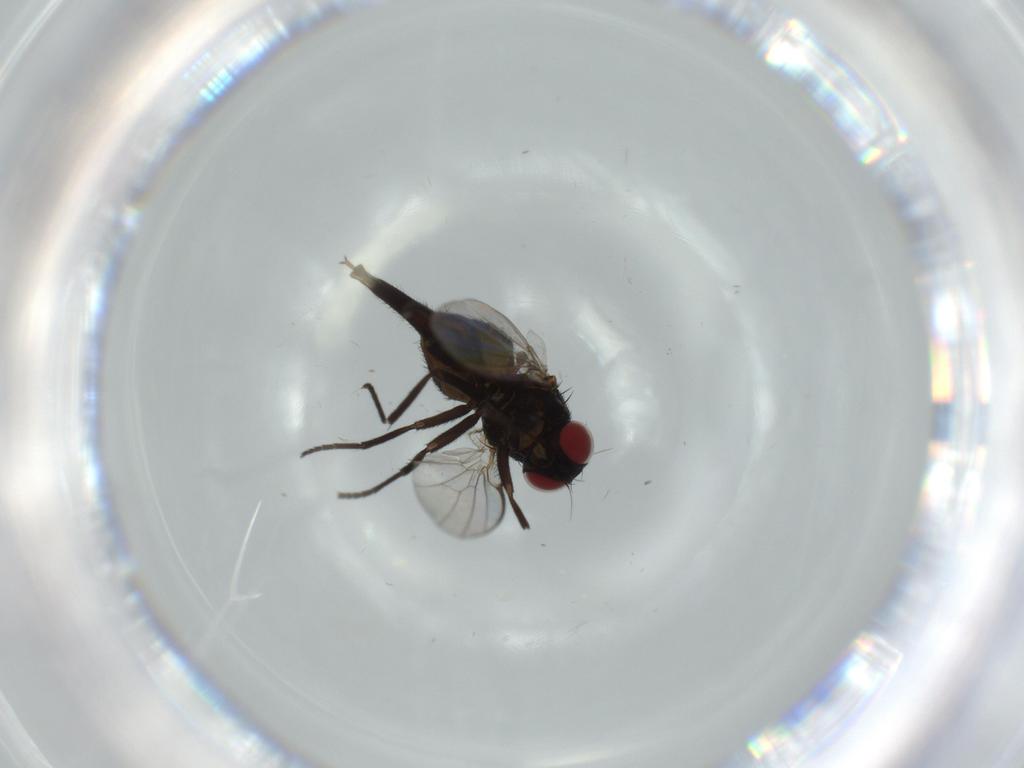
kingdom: Animalia
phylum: Arthropoda
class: Insecta
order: Diptera
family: Agromyzidae
